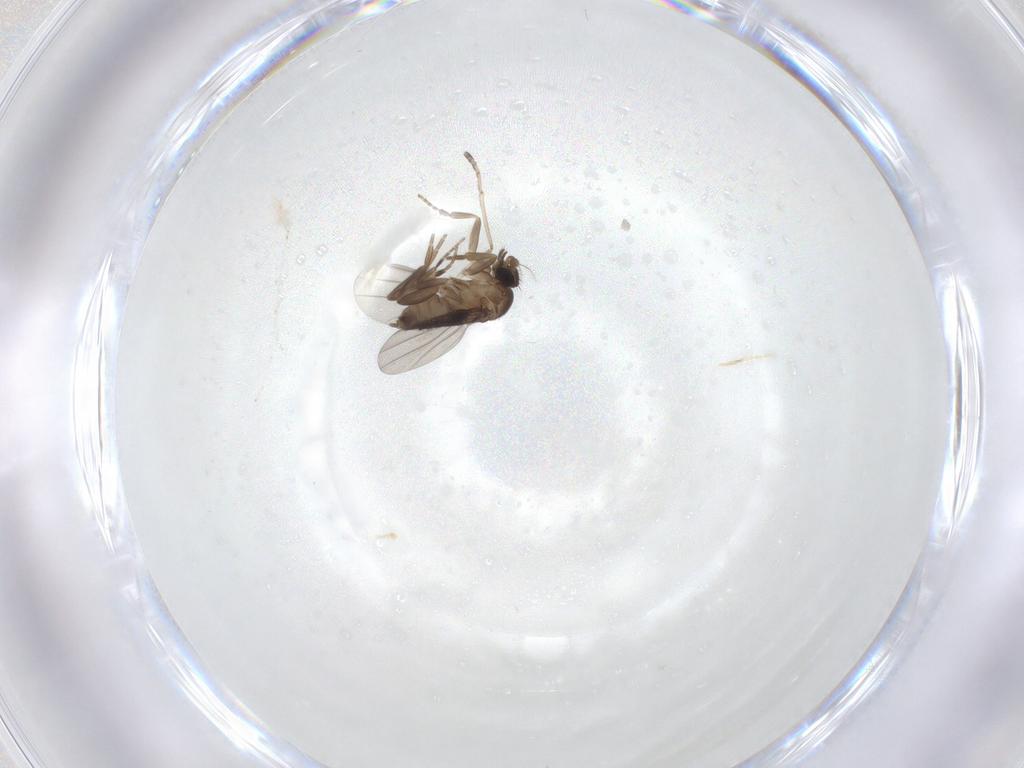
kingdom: Animalia
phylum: Arthropoda
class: Insecta
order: Diptera
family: Phoridae
